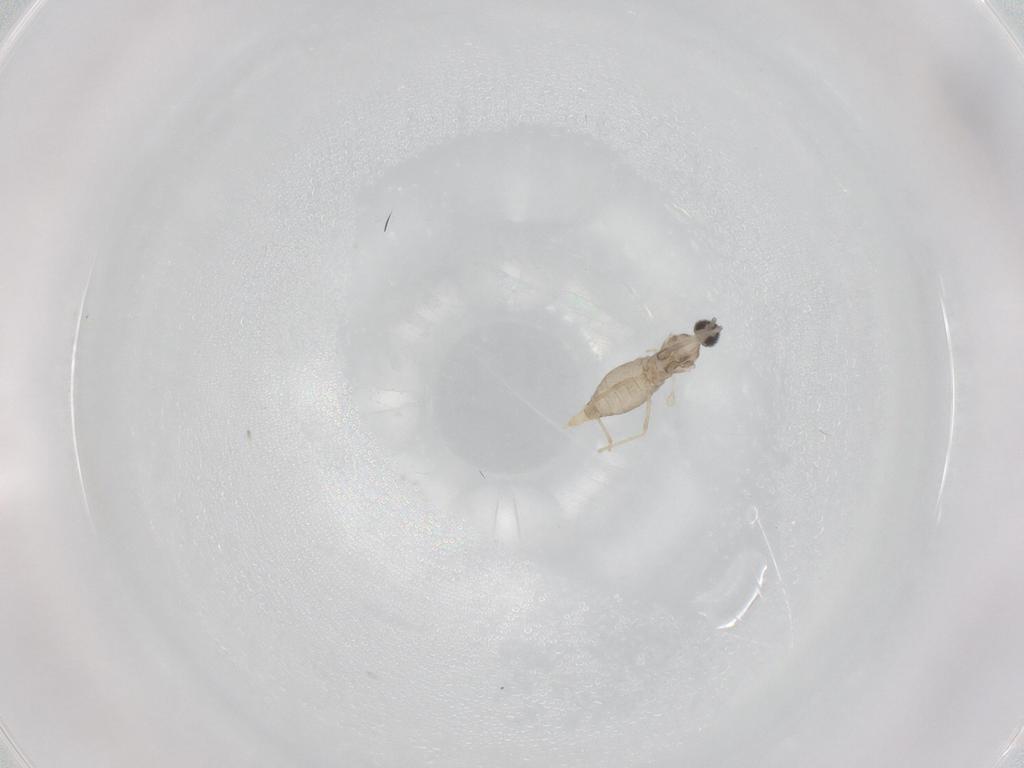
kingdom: Animalia
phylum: Arthropoda
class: Insecta
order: Diptera
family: Cecidomyiidae
